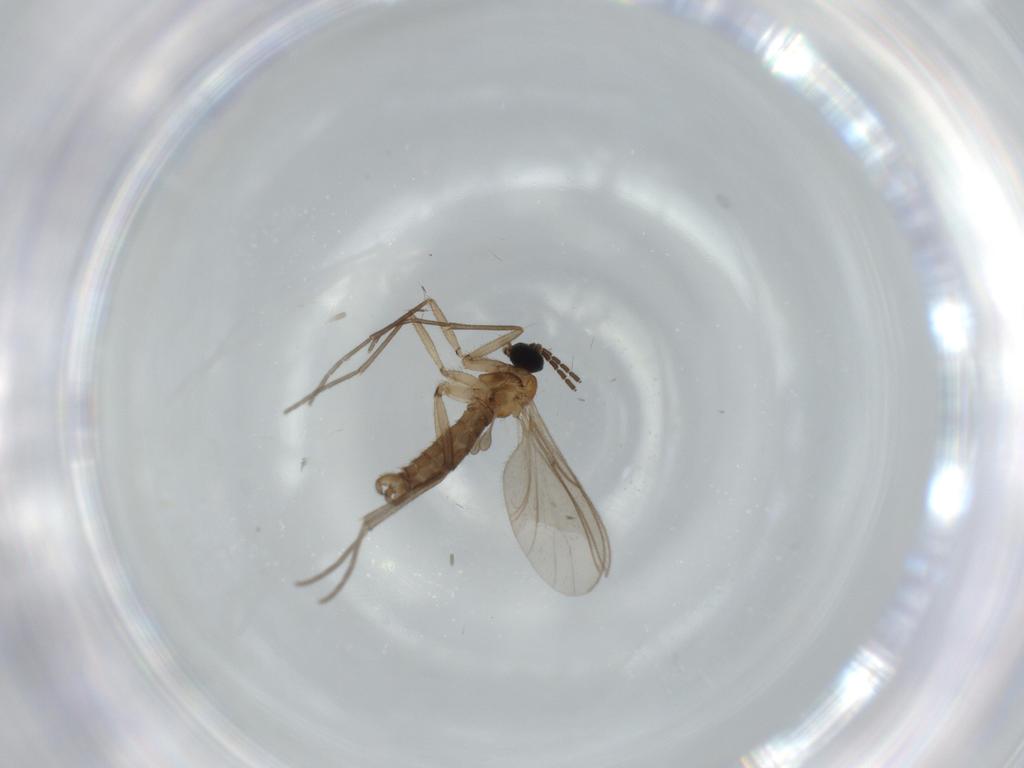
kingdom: Animalia
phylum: Arthropoda
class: Insecta
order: Diptera
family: Sciaridae
